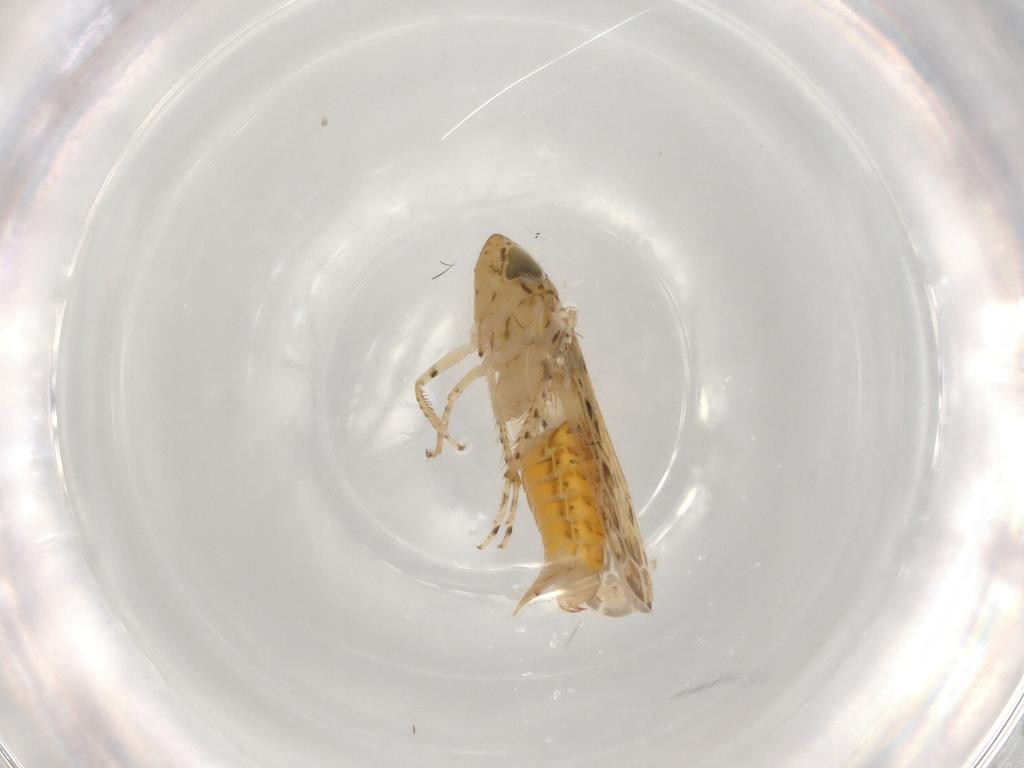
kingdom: Animalia
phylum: Arthropoda
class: Insecta
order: Hemiptera
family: Cicadellidae
